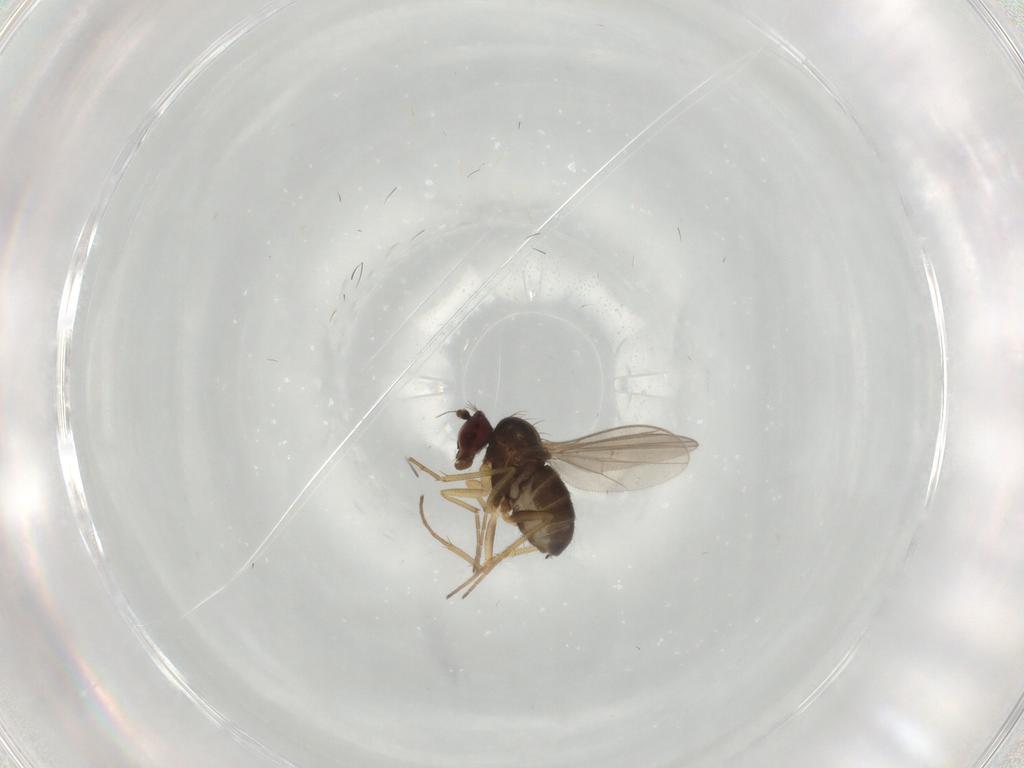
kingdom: Animalia
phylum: Arthropoda
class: Insecta
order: Diptera
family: Dolichopodidae
